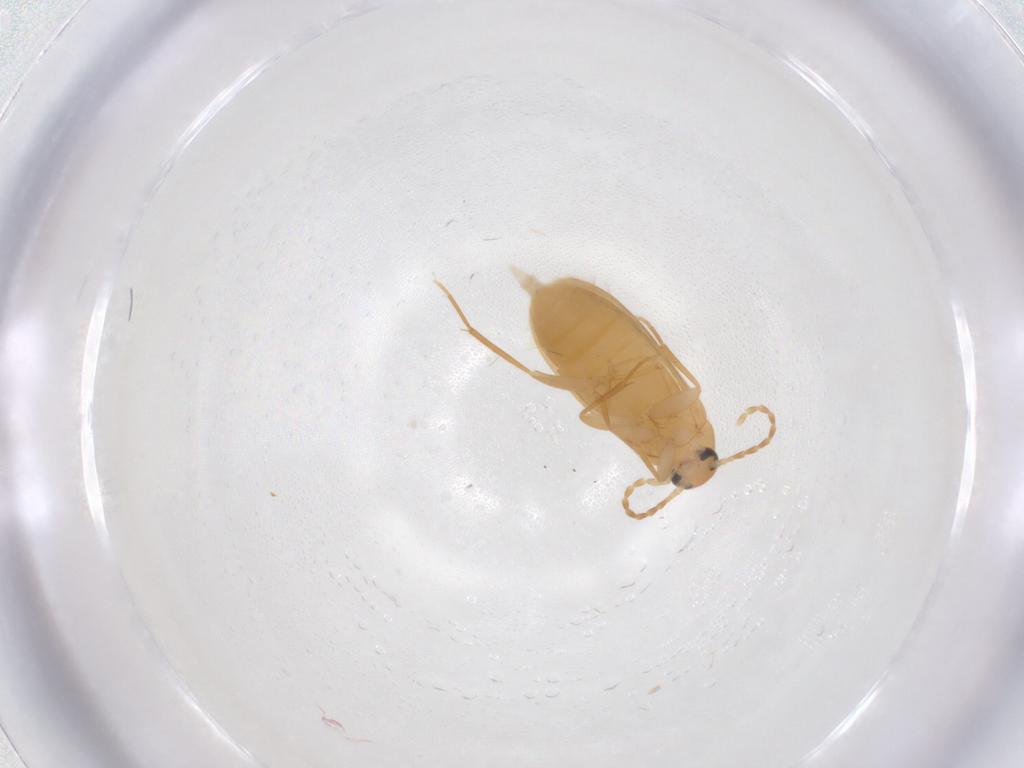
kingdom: Animalia
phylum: Arthropoda
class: Insecta
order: Coleoptera
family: Scraptiidae
